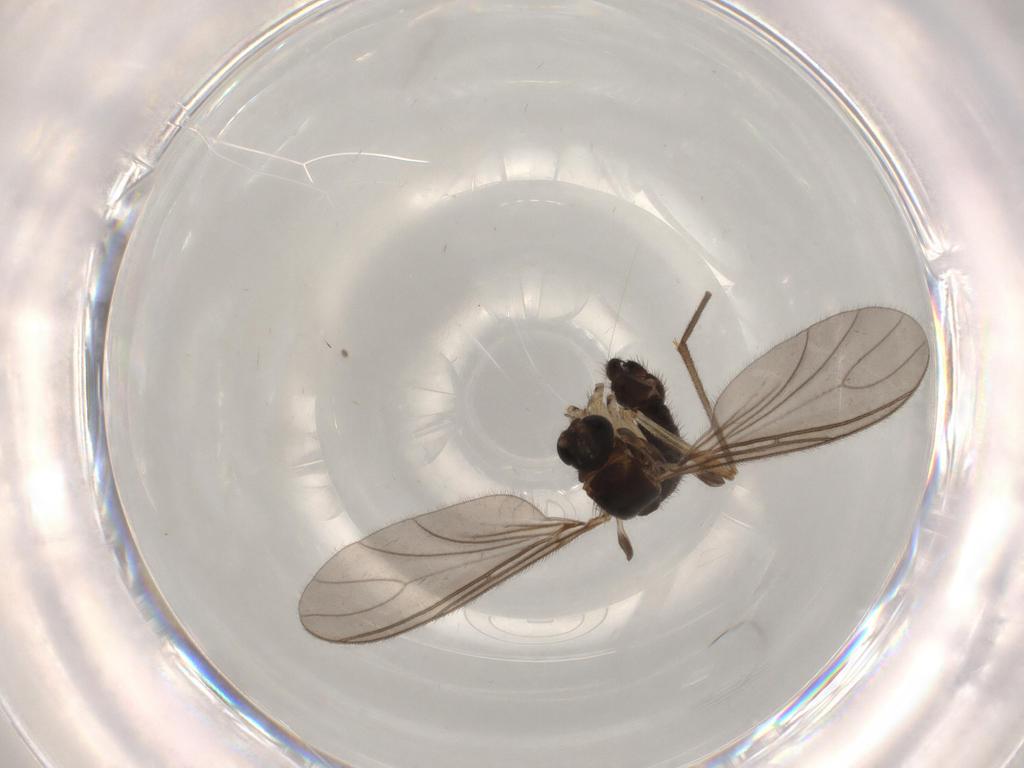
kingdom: Animalia
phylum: Arthropoda
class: Insecta
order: Diptera
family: Sciaridae
